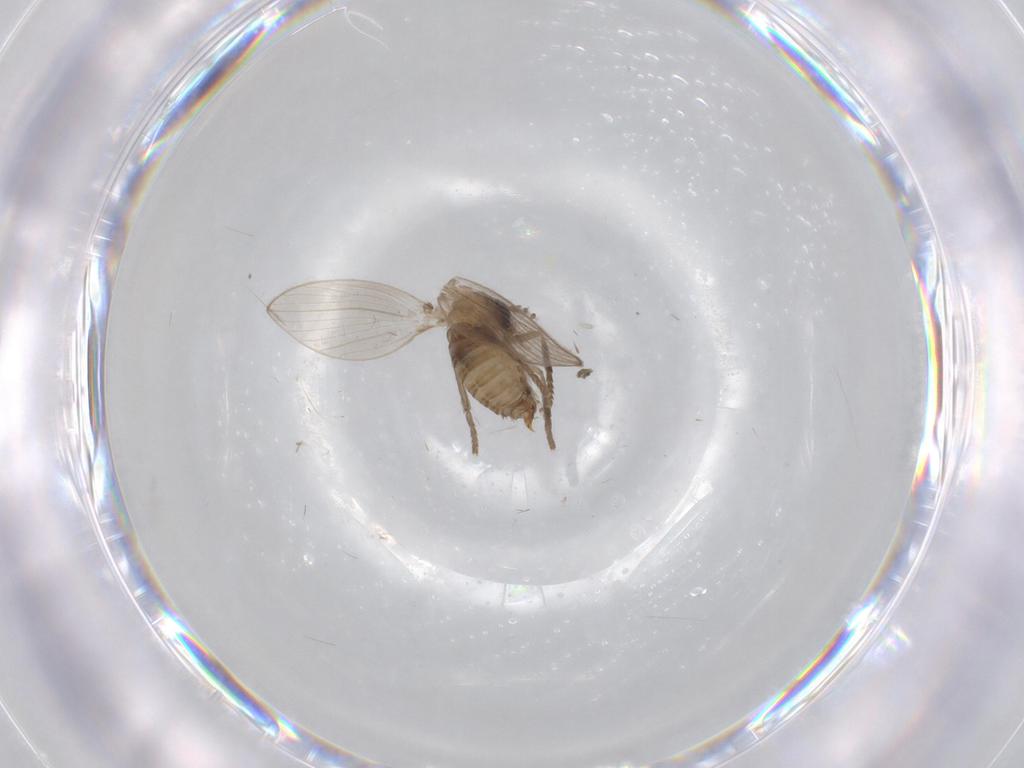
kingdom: Animalia
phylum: Arthropoda
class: Insecta
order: Diptera
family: Psychodidae
